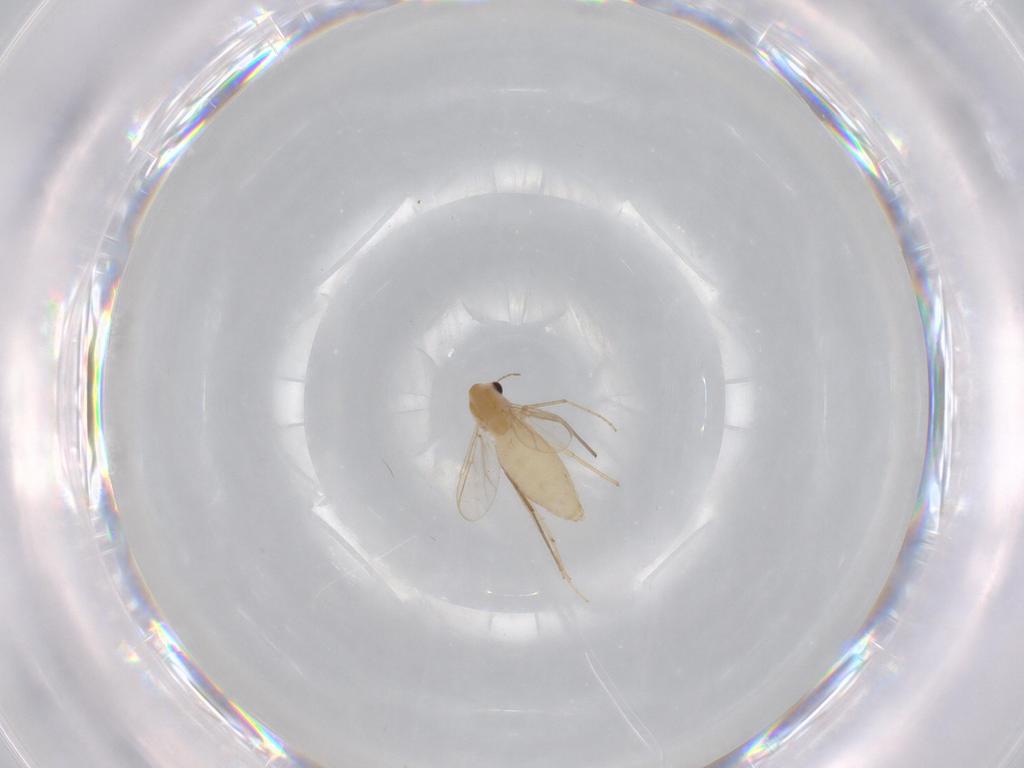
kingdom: Animalia
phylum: Arthropoda
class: Insecta
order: Diptera
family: Chironomidae
